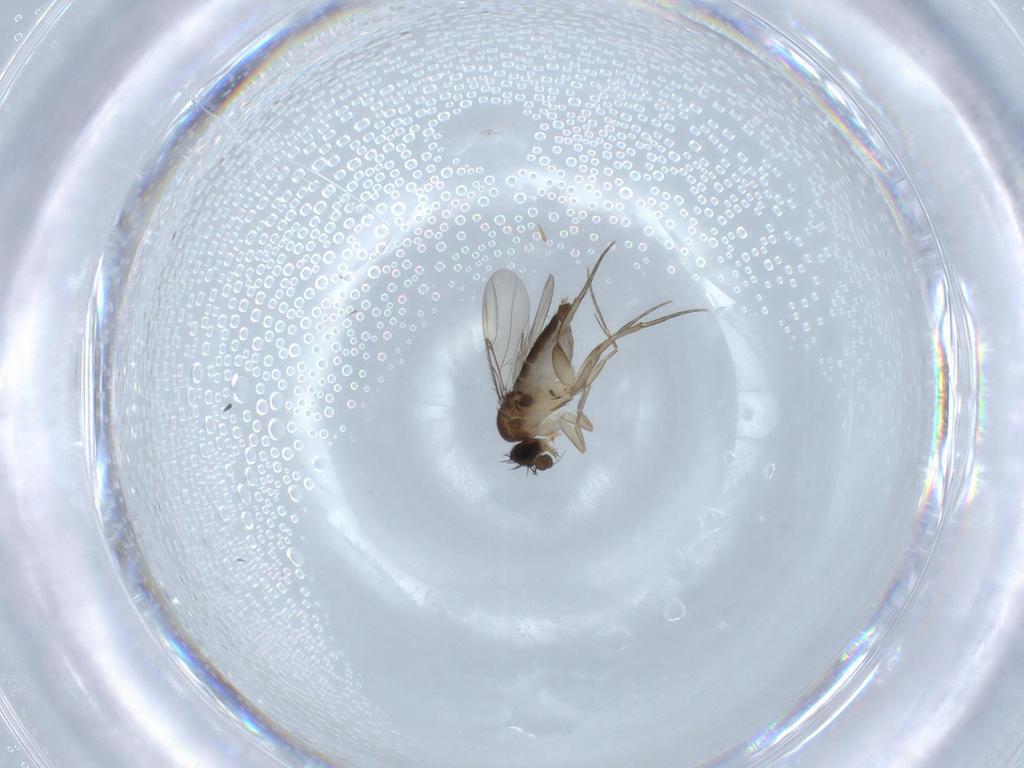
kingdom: Animalia
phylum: Arthropoda
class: Insecta
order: Diptera
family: Phoridae
